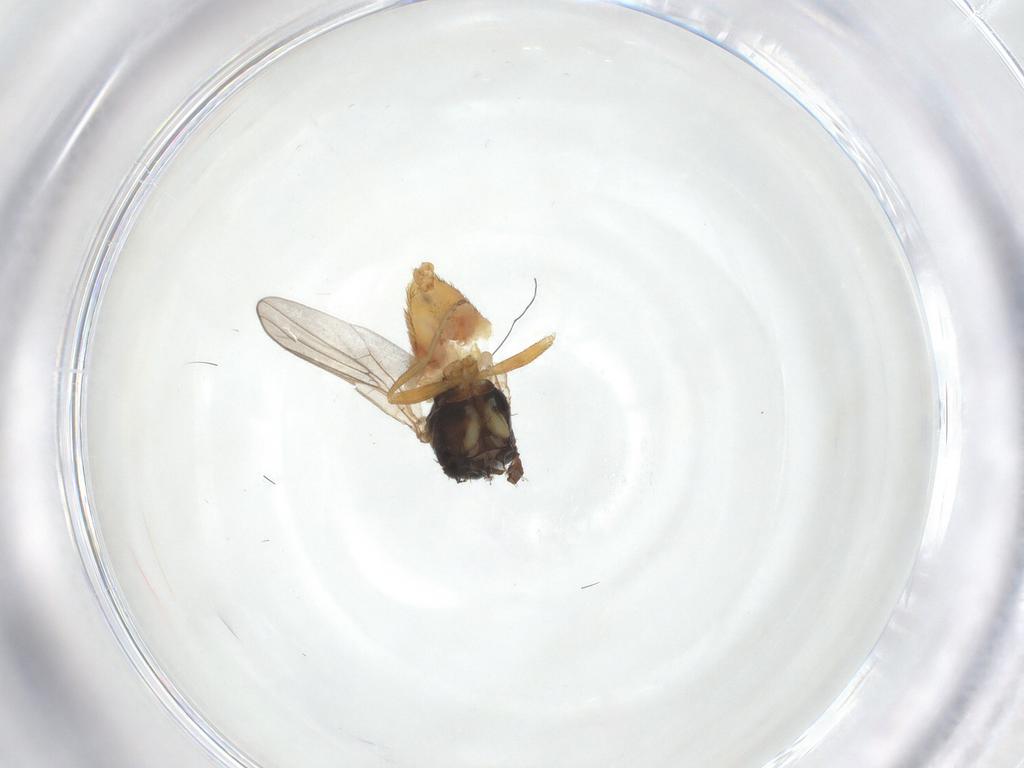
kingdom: Animalia
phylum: Arthropoda
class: Insecta
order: Diptera
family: Chloropidae
